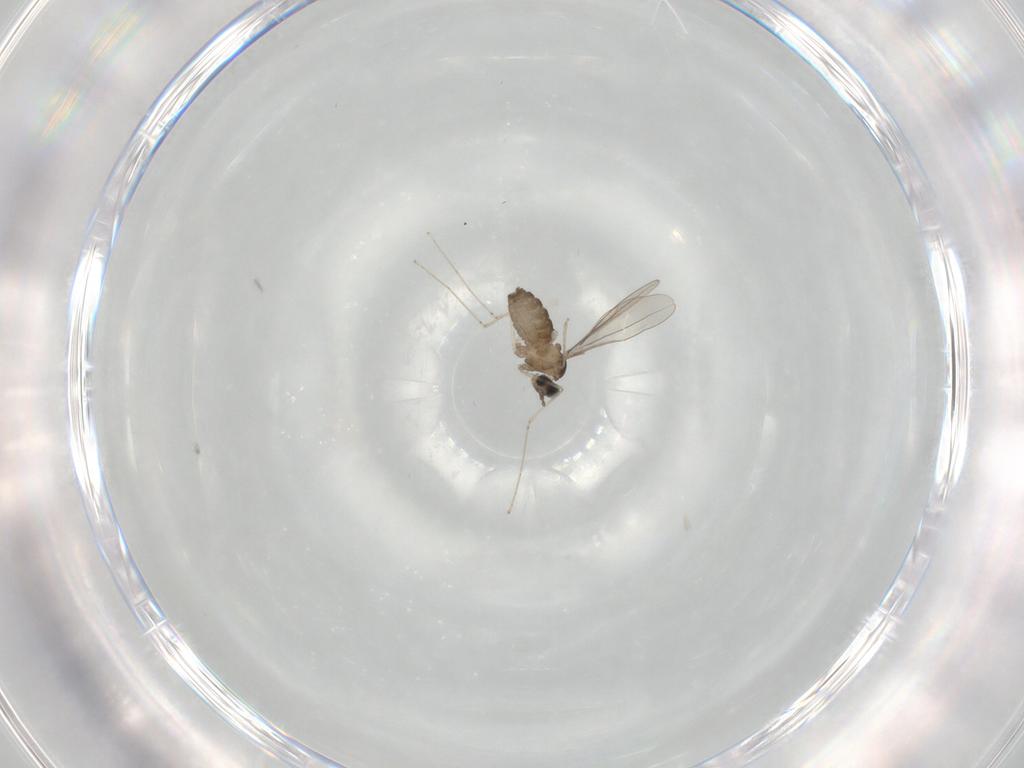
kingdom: Animalia
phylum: Arthropoda
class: Insecta
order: Diptera
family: Cecidomyiidae
